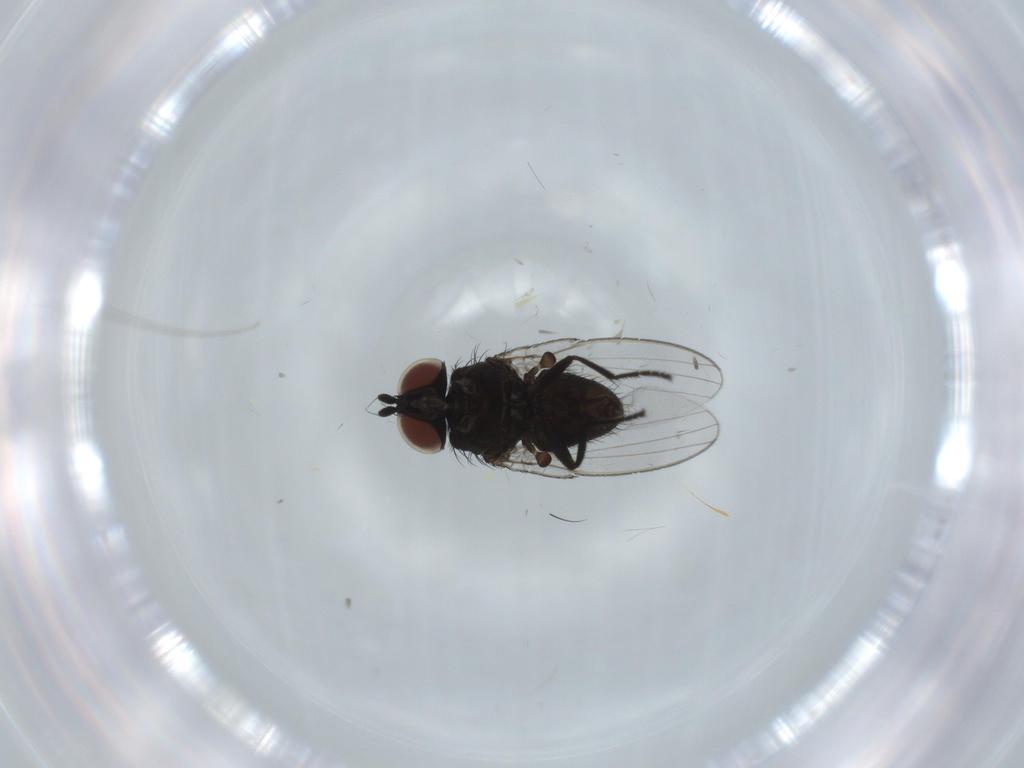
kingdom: Animalia
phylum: Arthropoda
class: Insecta
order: Diptera
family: Milichiidae
